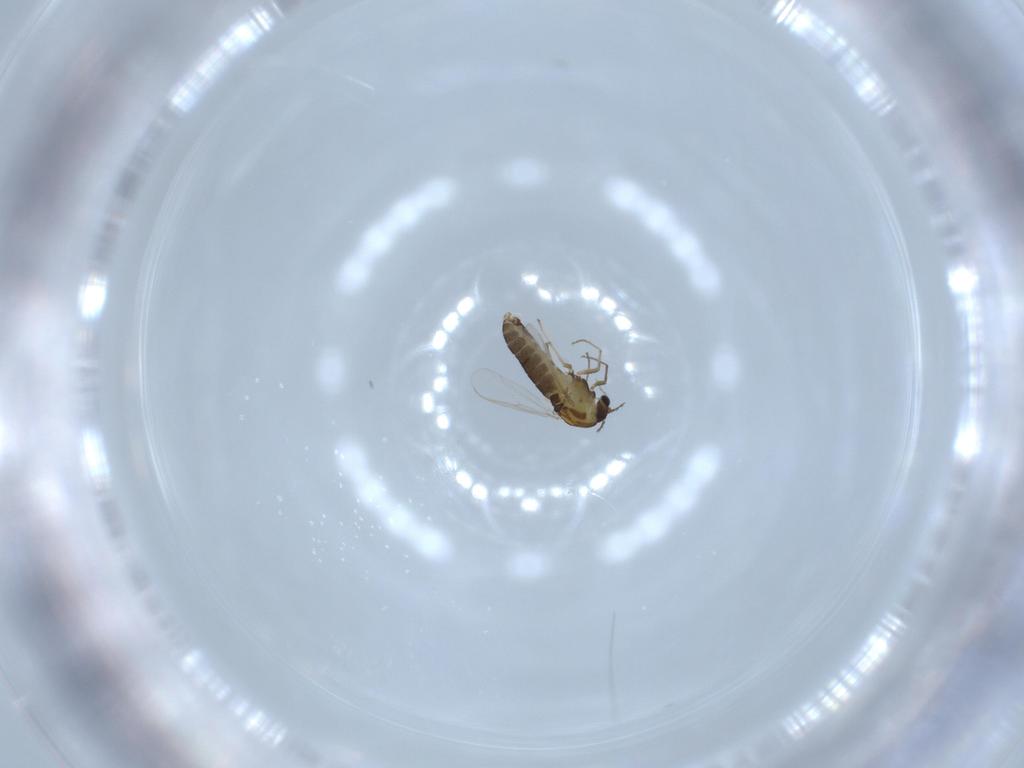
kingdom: Animalia
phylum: Arthropoda
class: Insecta
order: Diptera
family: Chironomidae
